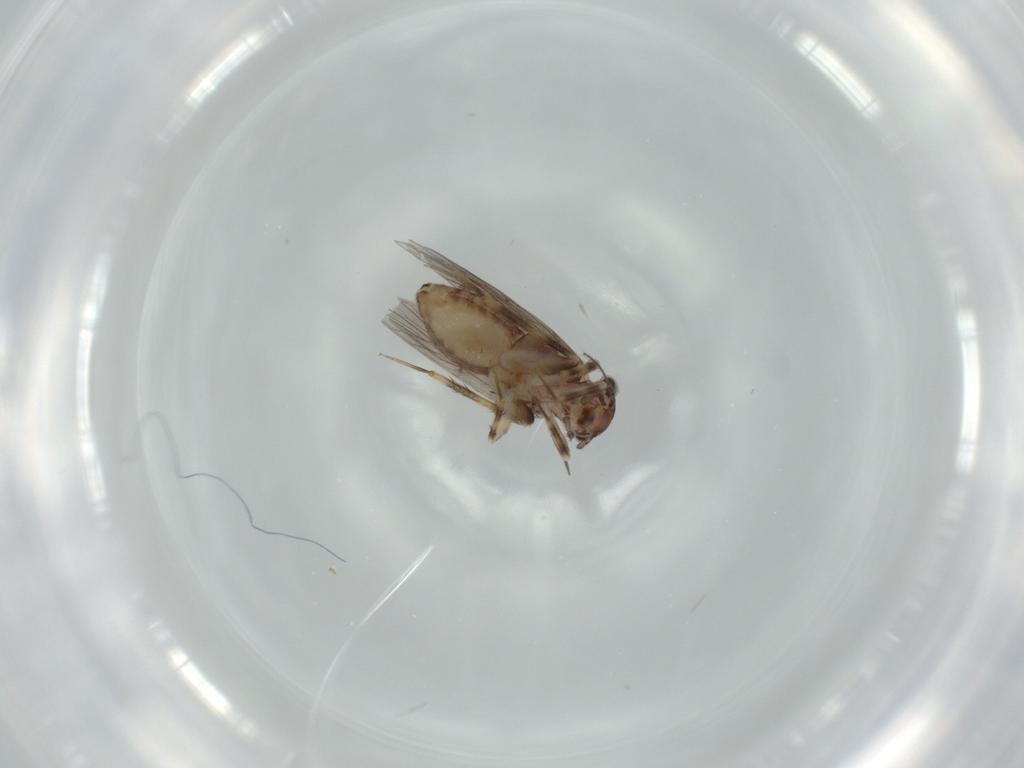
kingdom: Animalia
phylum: Arthropoda
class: Insecta
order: Psocodea
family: Lepidopsocidae
